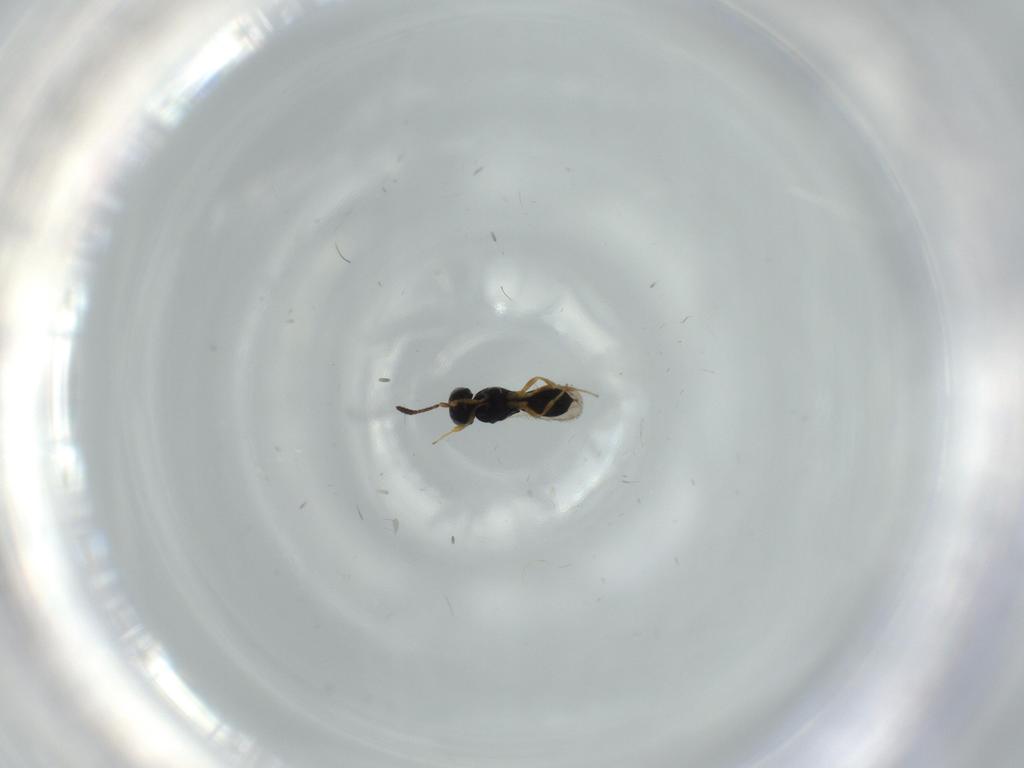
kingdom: Animalia
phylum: Arthropoda
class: Insecta
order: Hymenoptera
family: Scelionidae
